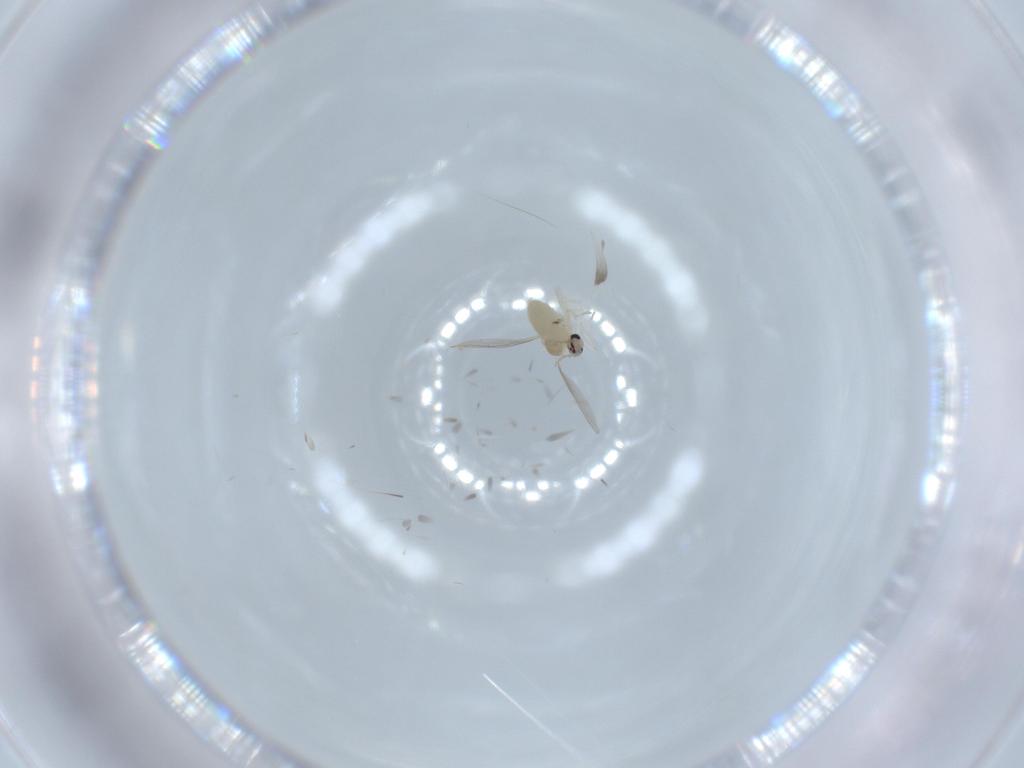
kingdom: Animalia
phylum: Arthropoda
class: Insecta
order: Diptera
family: Cecidomyiidae
